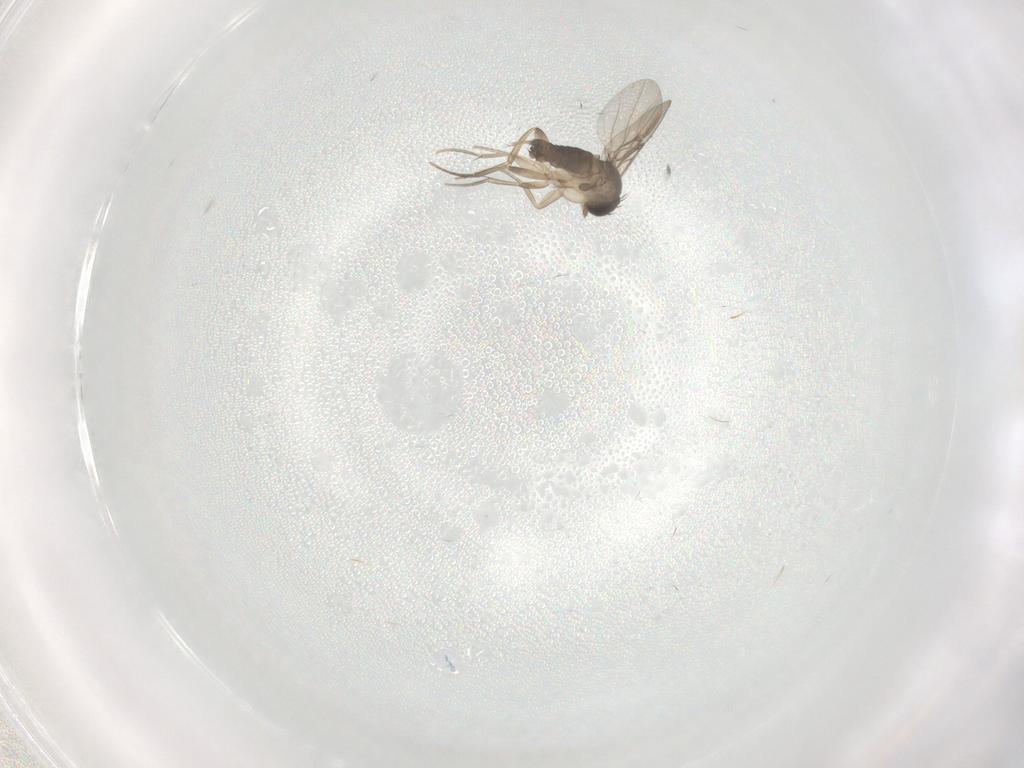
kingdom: Animalia
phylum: Arthropoda
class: Insecta
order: Diptera
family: Phoridae
